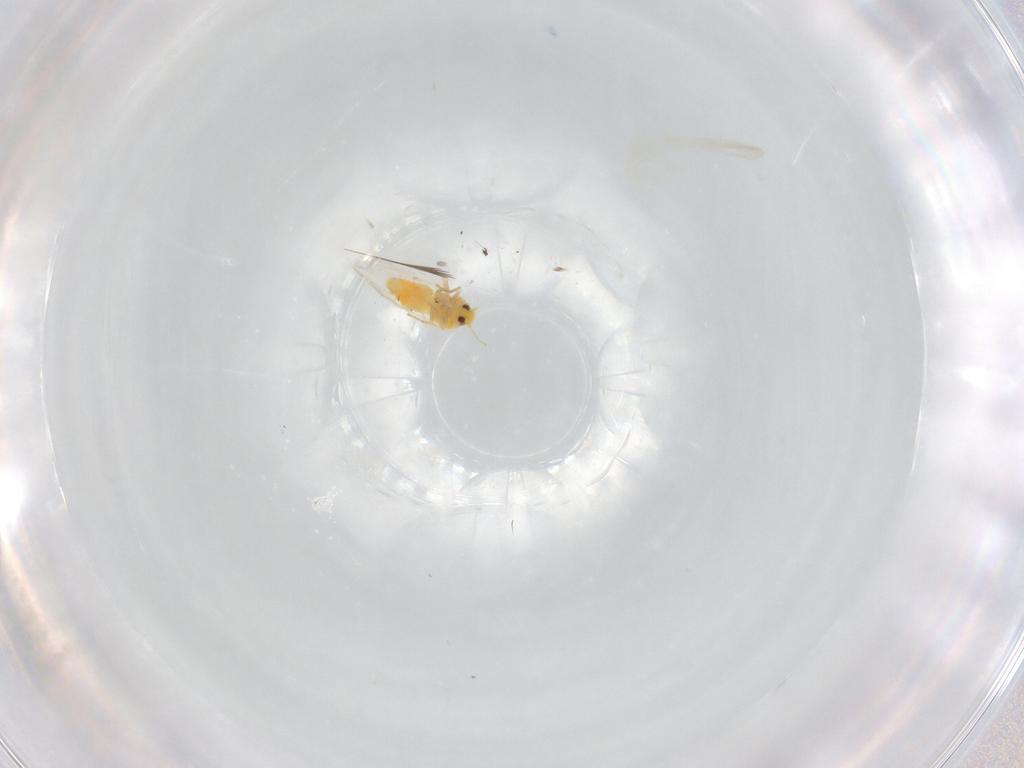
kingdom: Animalia
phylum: Arthropoda
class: Insecta
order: Hemiptera
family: Aleyrodidae
